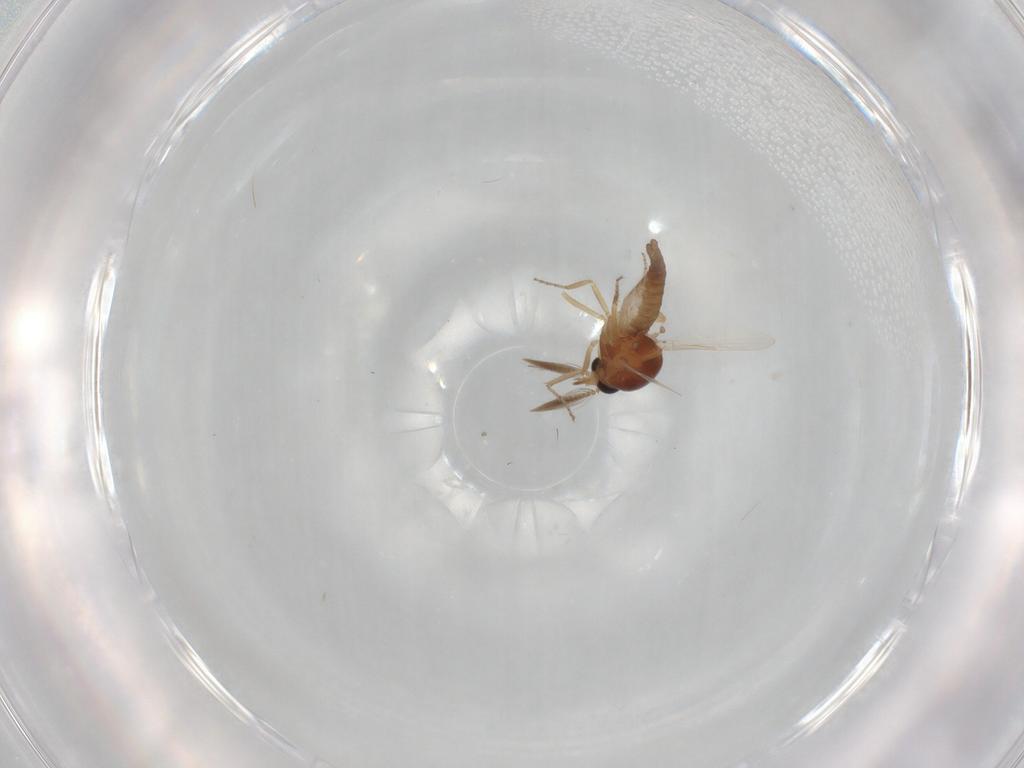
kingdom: Animalia
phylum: Arthropoda
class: Insecta
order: Diptera
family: Ceratopogonidae
